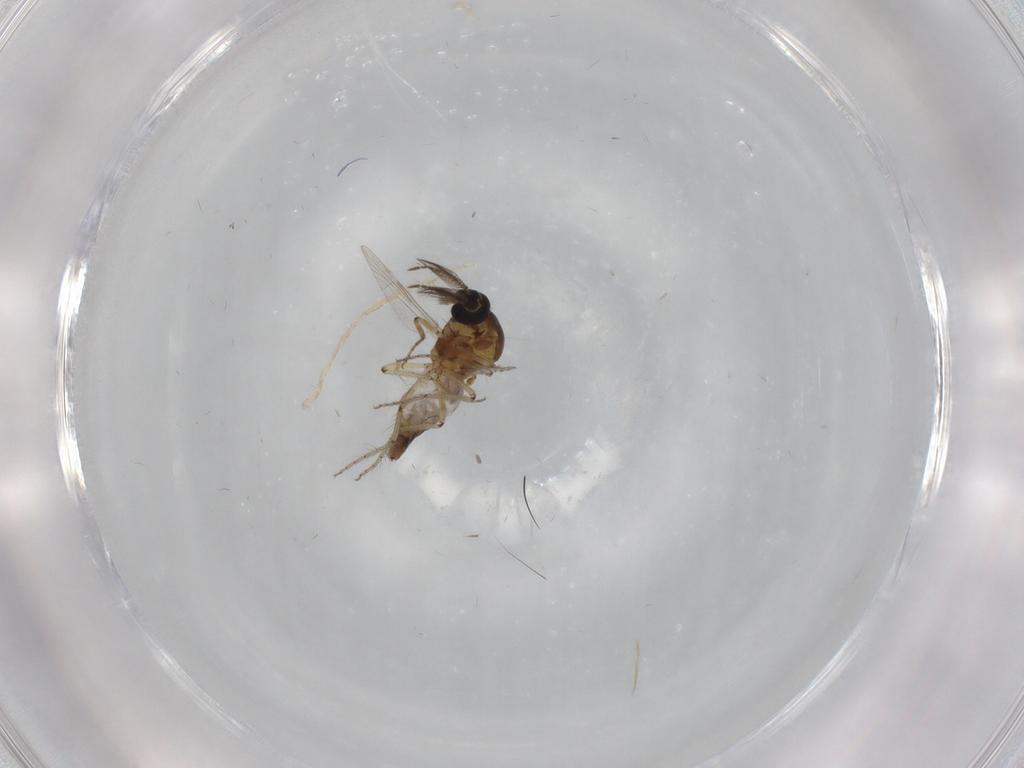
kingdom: Animalia
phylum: Arthropoda
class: Insecta
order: Diptera
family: Ceratopogonidae
